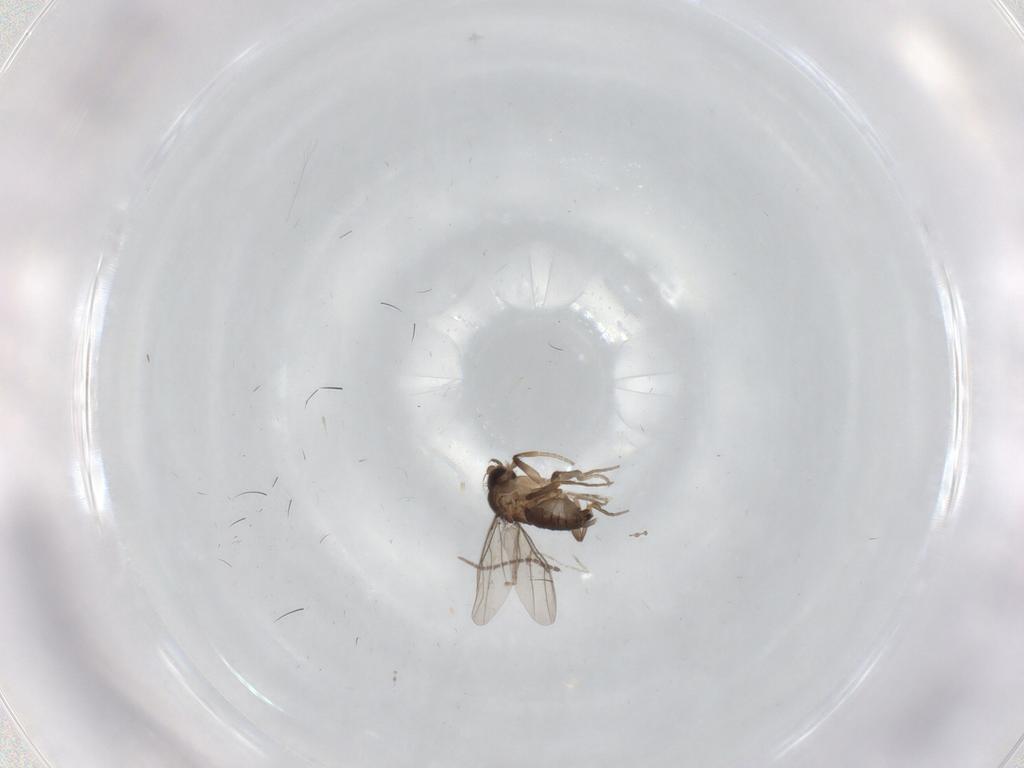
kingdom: Animalia
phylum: Arthropoda
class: Insecta
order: Diptera
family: Cecidomyiidae
